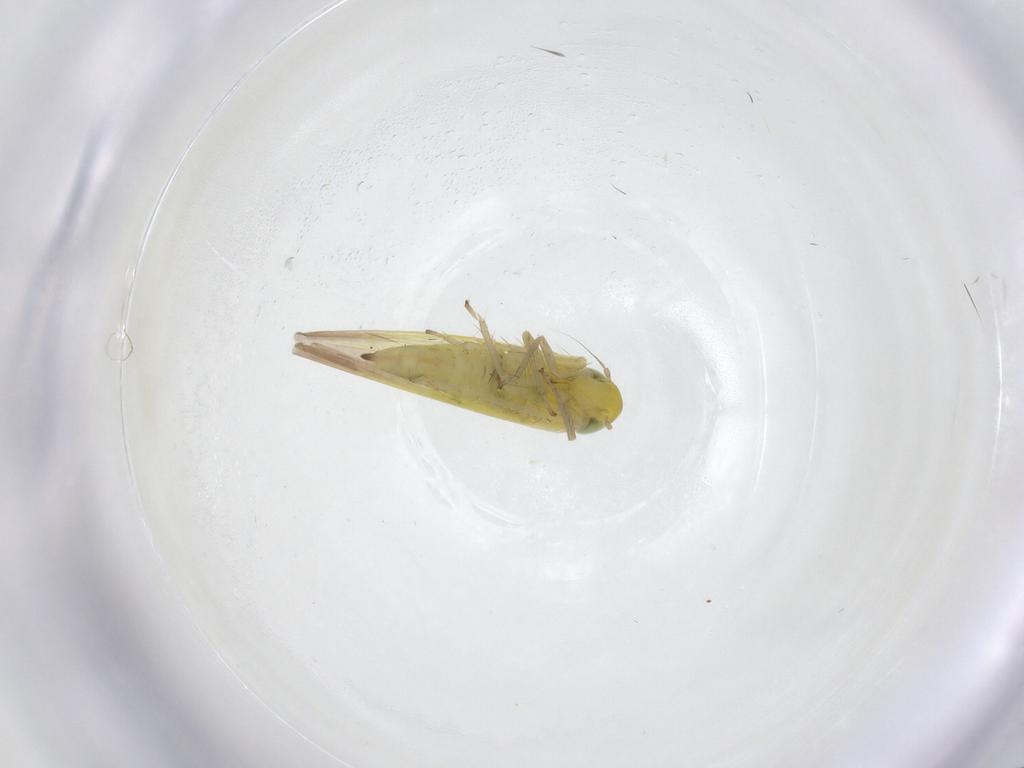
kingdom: Animalia
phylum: Arthropoda
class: Insecta
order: Hemiptera
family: Cicadellidae
